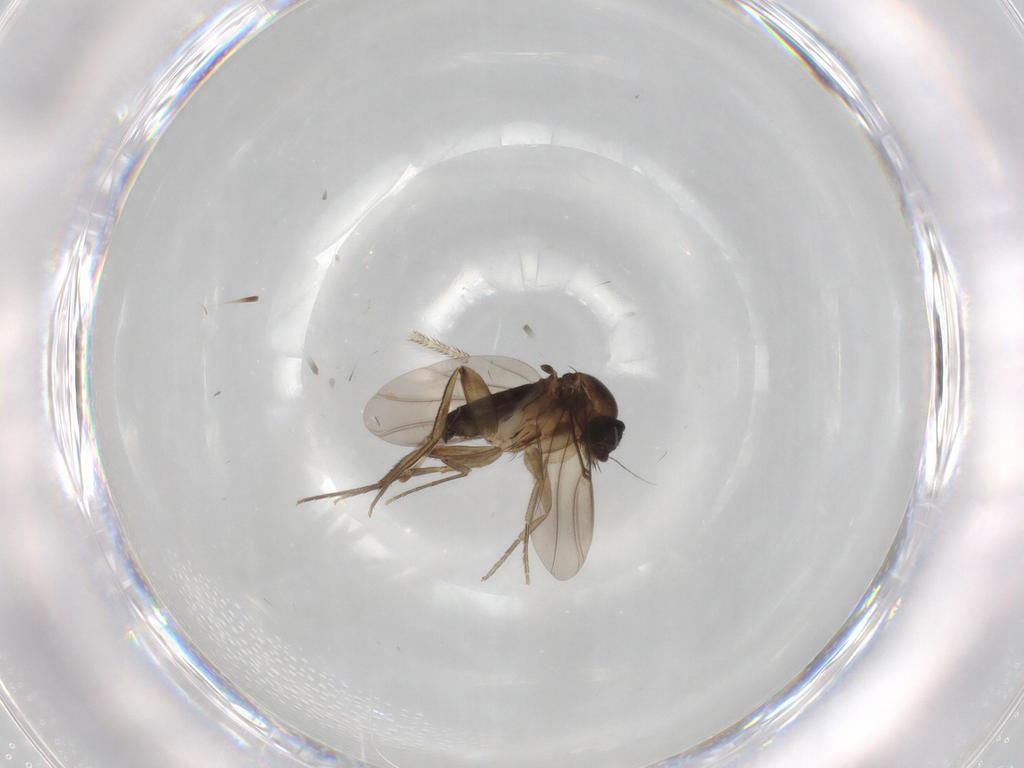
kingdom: Animalia
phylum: Arthropoda
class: Insecta
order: Diptera
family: Phoridae
